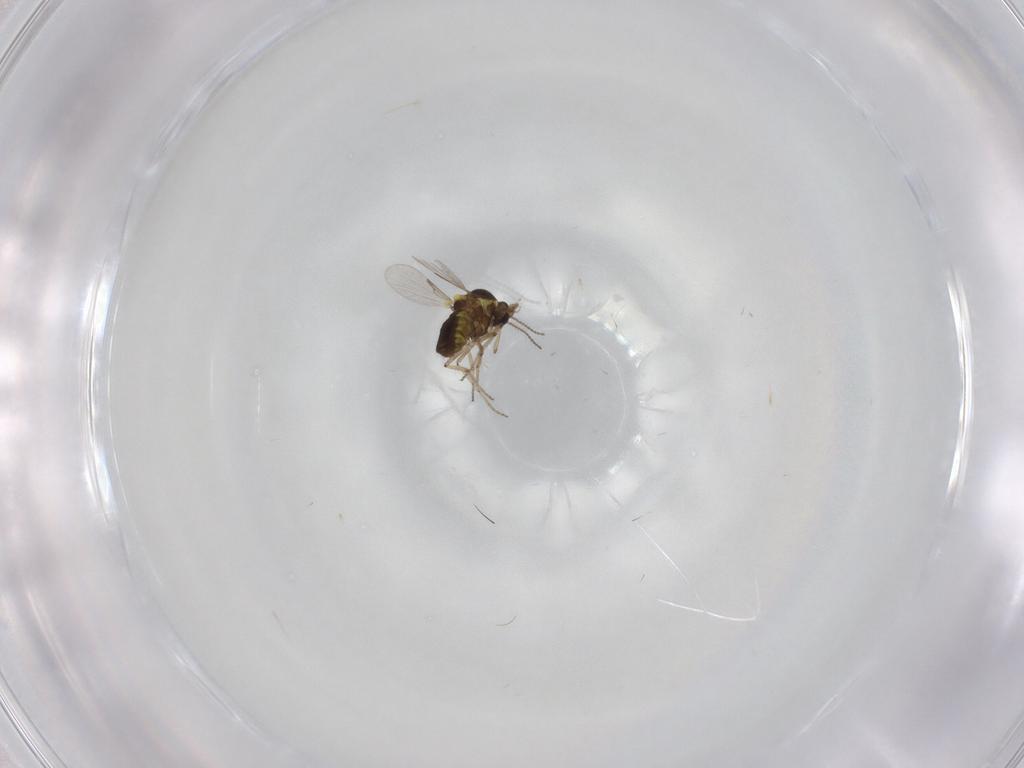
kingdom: Animalia
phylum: Arthropoda
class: Insecta
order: Diptera
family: Ceratopogonidae
